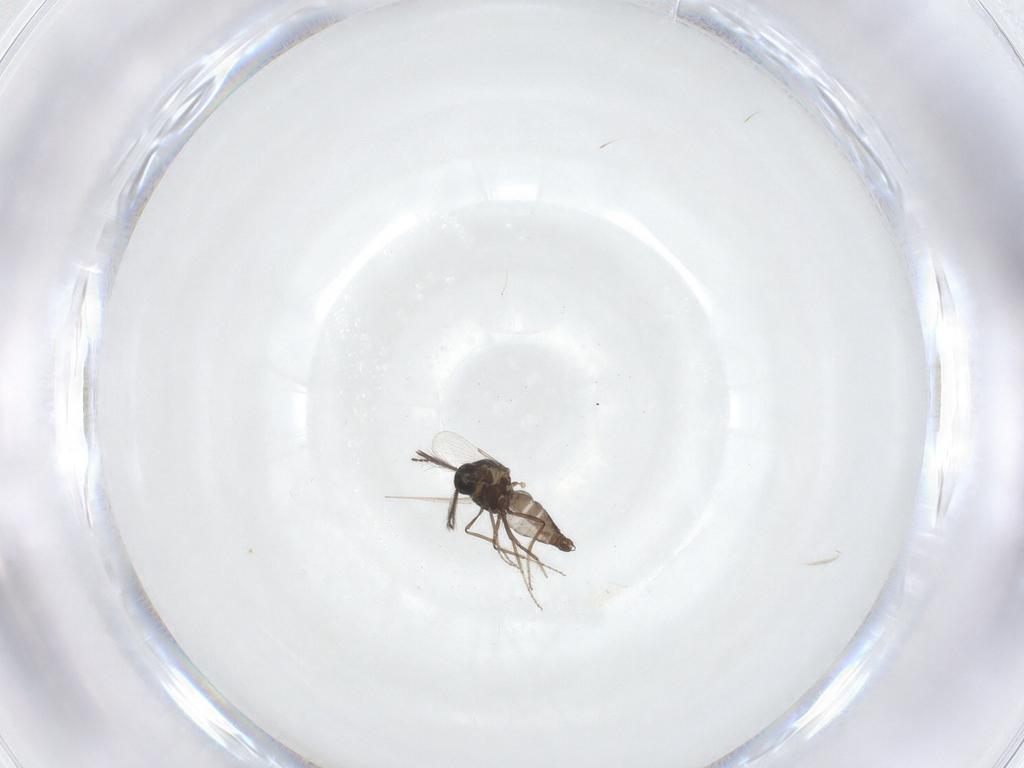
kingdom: Animalia
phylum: Arthropoda
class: Insecta
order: Diptera
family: Ceratopogonidae
